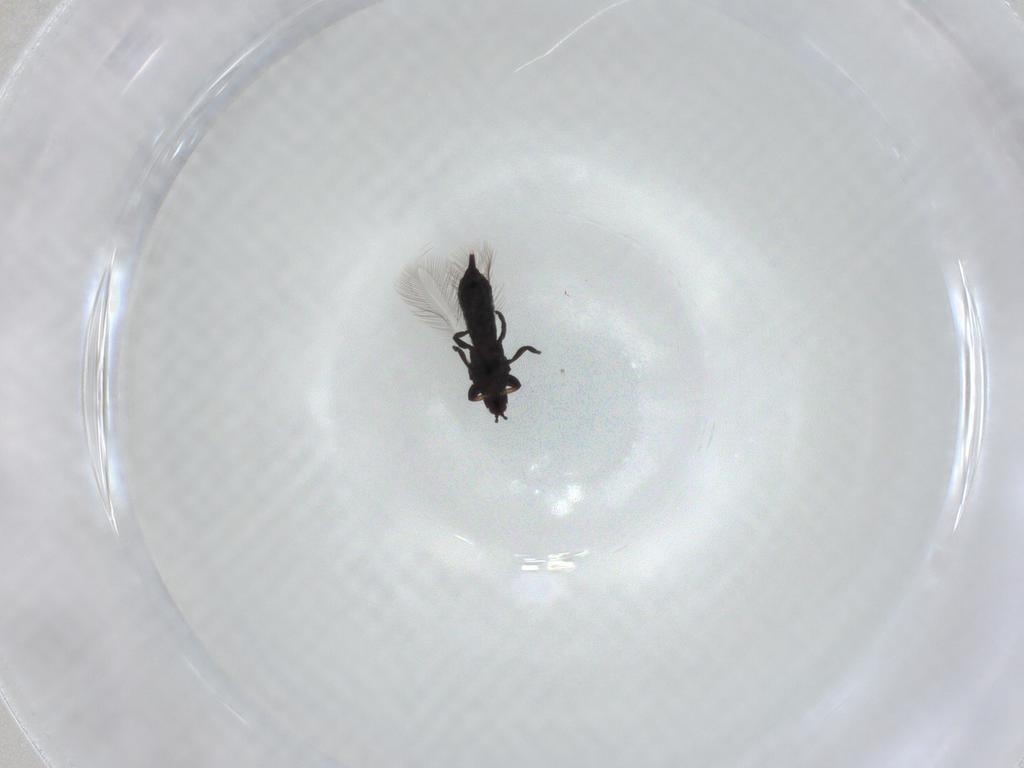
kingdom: Animalia
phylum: Arthropoda
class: Insecta
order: Thysanoptera
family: Phlaeothripidae
